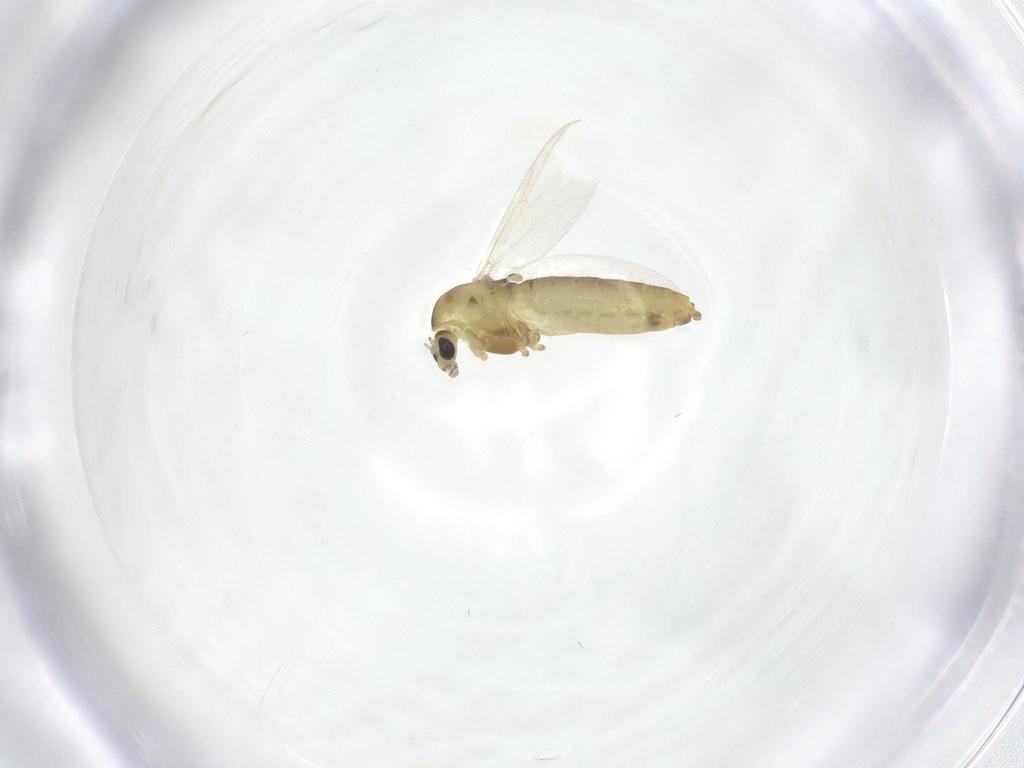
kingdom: Animalia
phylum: Arthropoda
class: Insecta
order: Diptera
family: Chironomidae
